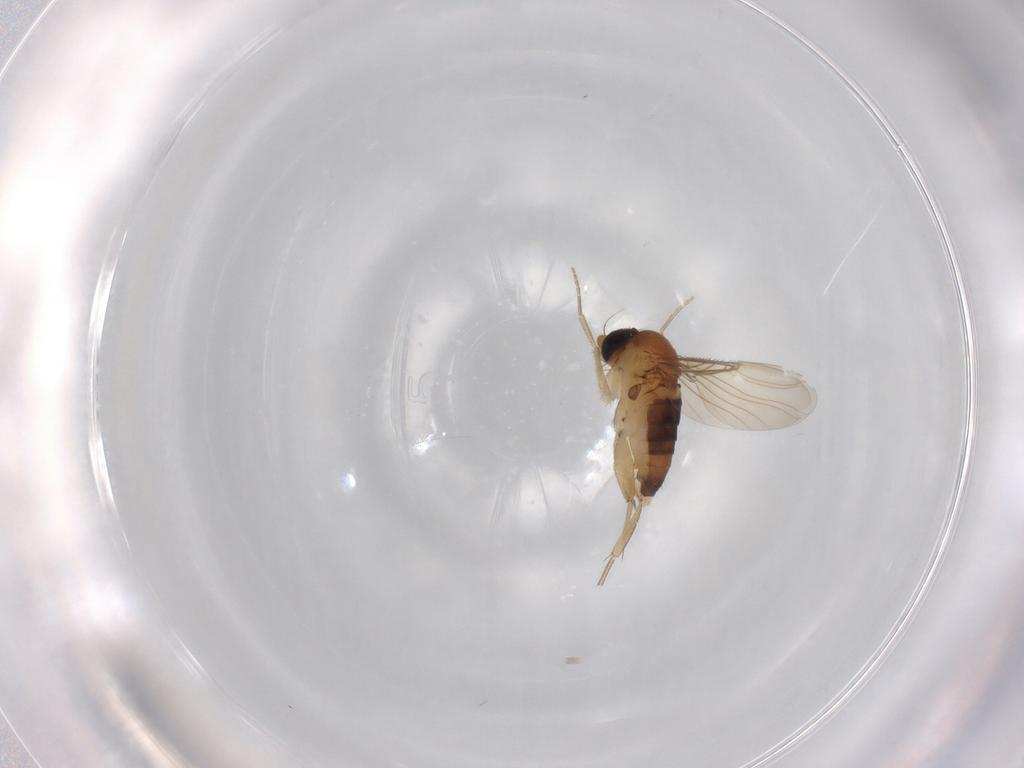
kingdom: Animalia
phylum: Arthropoda
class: Insecta
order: Diptera
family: Phoridae
